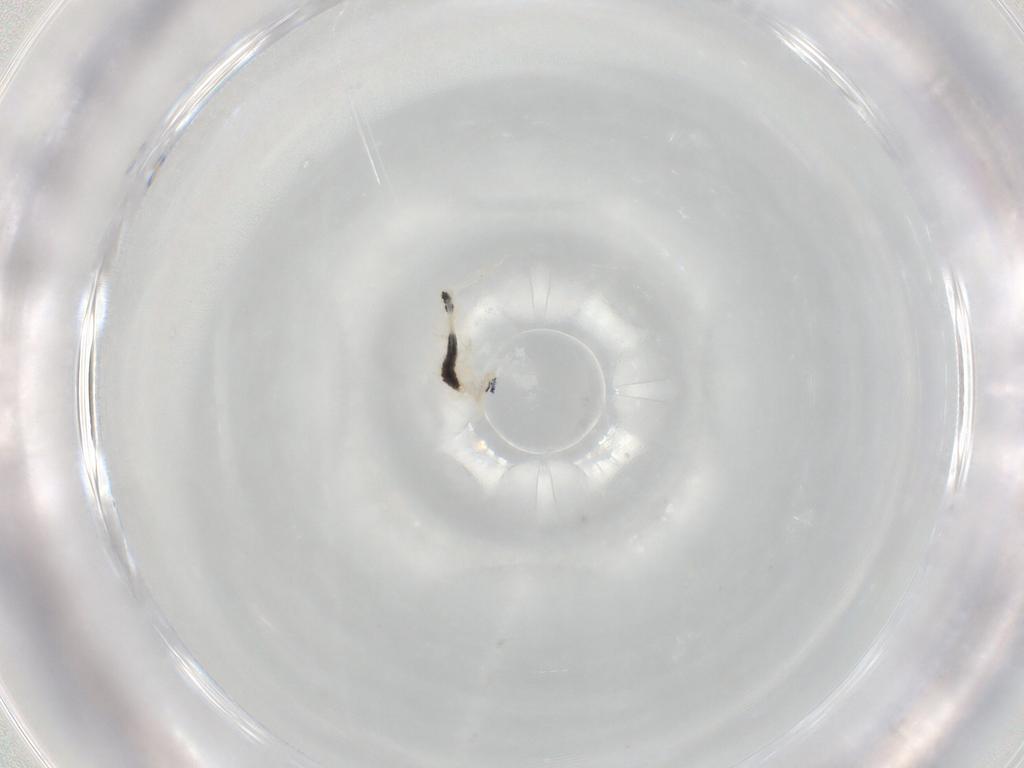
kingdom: Animalia
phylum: Arthropoda
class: Collembola
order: Entomobryomorpha
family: Entomobryidae
